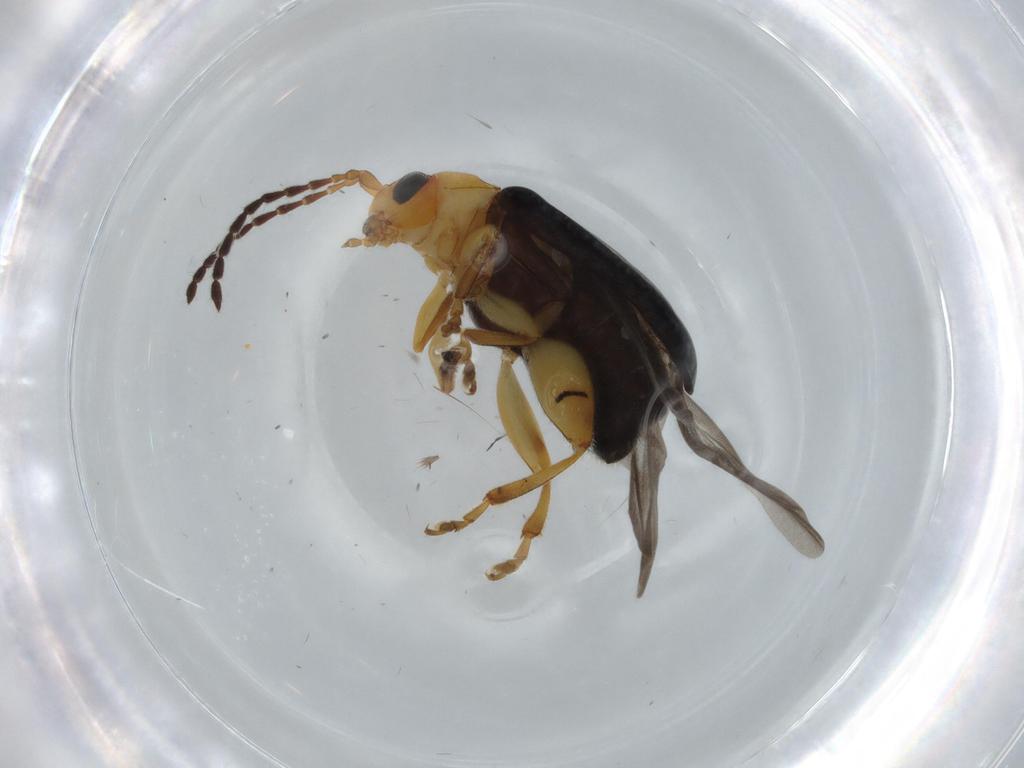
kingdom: Animalia
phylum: Arthropoda
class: Insecta
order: Coleoptera
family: Chrysomelidae
